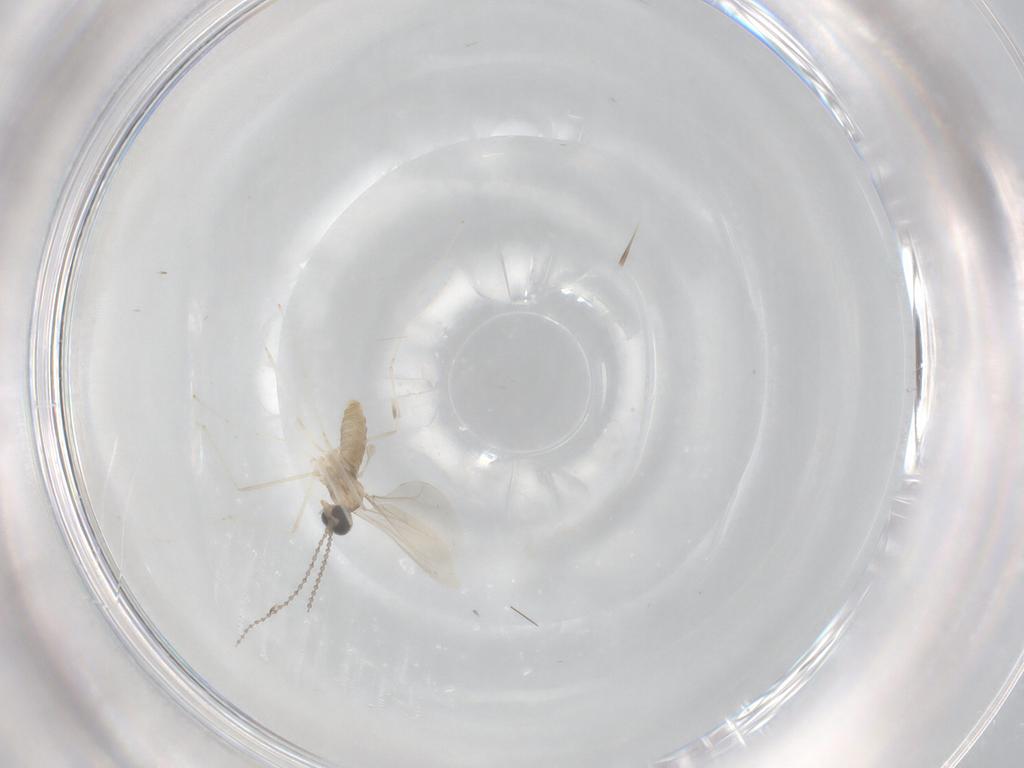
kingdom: Animalia
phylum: Arthropoda
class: Insecta
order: Diptera
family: Cecidomyiidae
